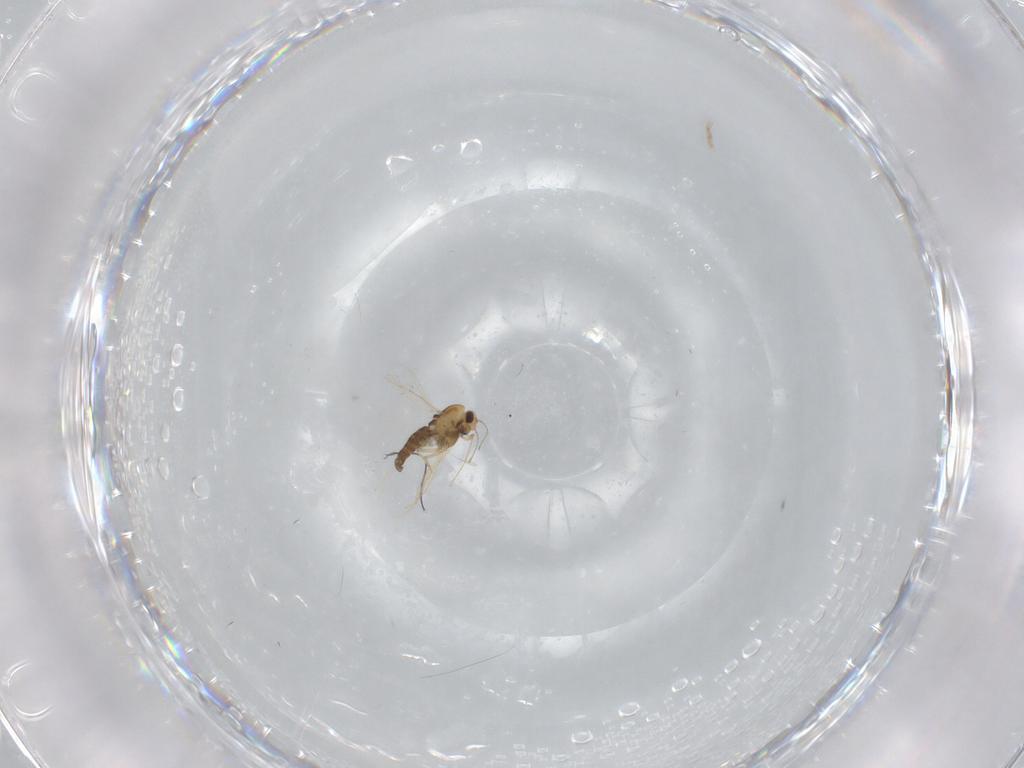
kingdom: Animalia
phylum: Arthropoda
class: Insecta
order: Diptera
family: Chironomidae
